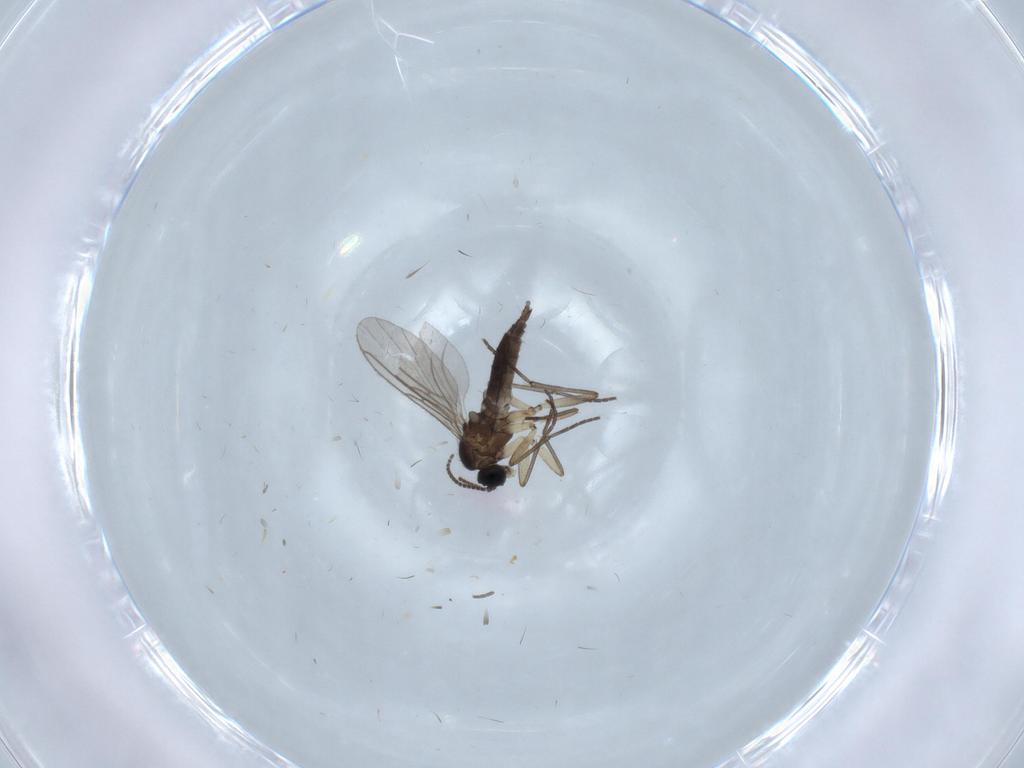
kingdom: Animalia
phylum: Arthropoda
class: Insecta
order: Diptera
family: Sciaridae
